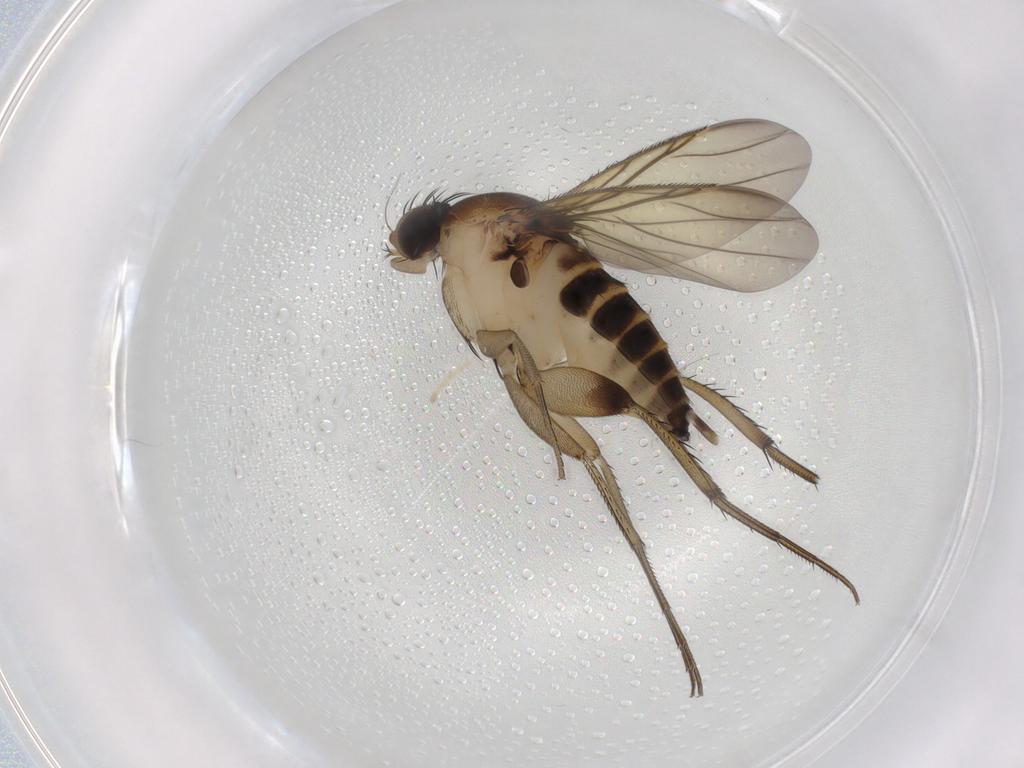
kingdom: Animalia
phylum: Arthropoda
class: Insecta
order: Diptera
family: Phoridae
